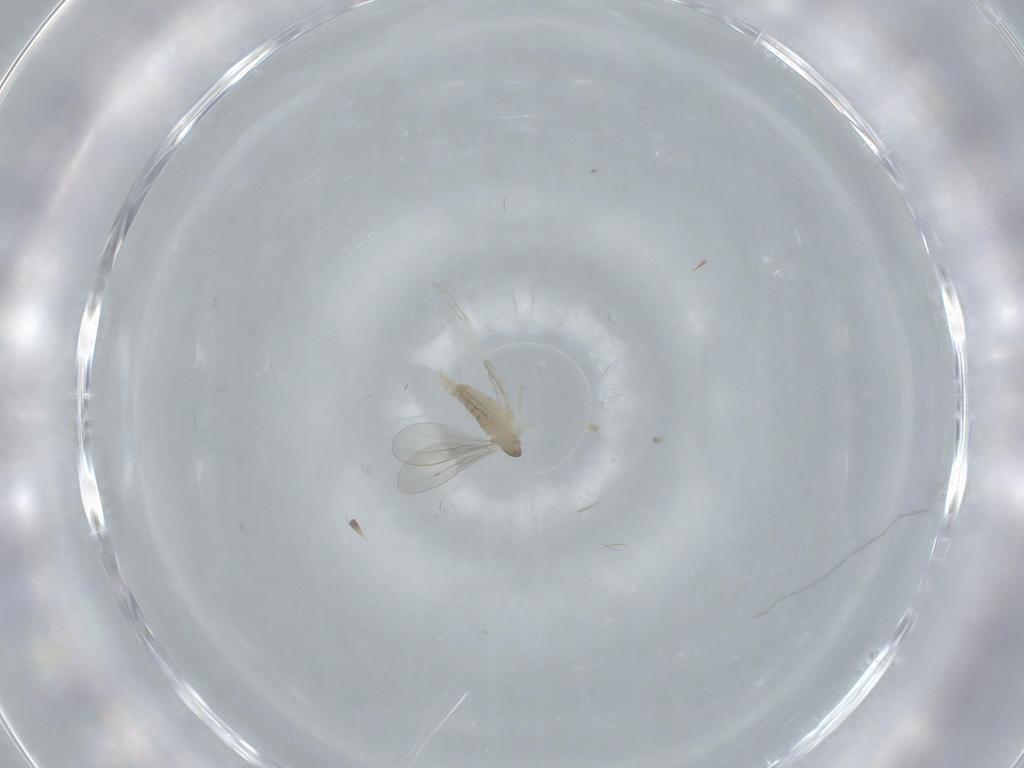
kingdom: Animalia
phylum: Arthropoda
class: Insecta
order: Diptera
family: Cecidomyiidae
